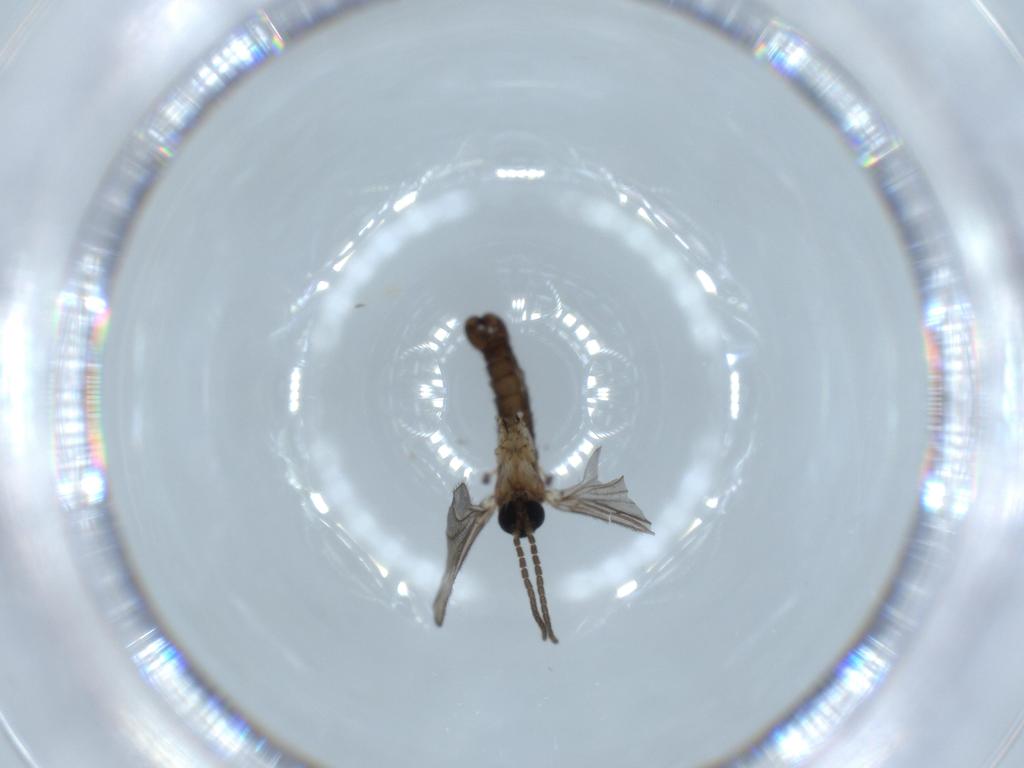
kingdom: Animalia
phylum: Arthropoda
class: Insecta
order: Diptera
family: Sciaridae
